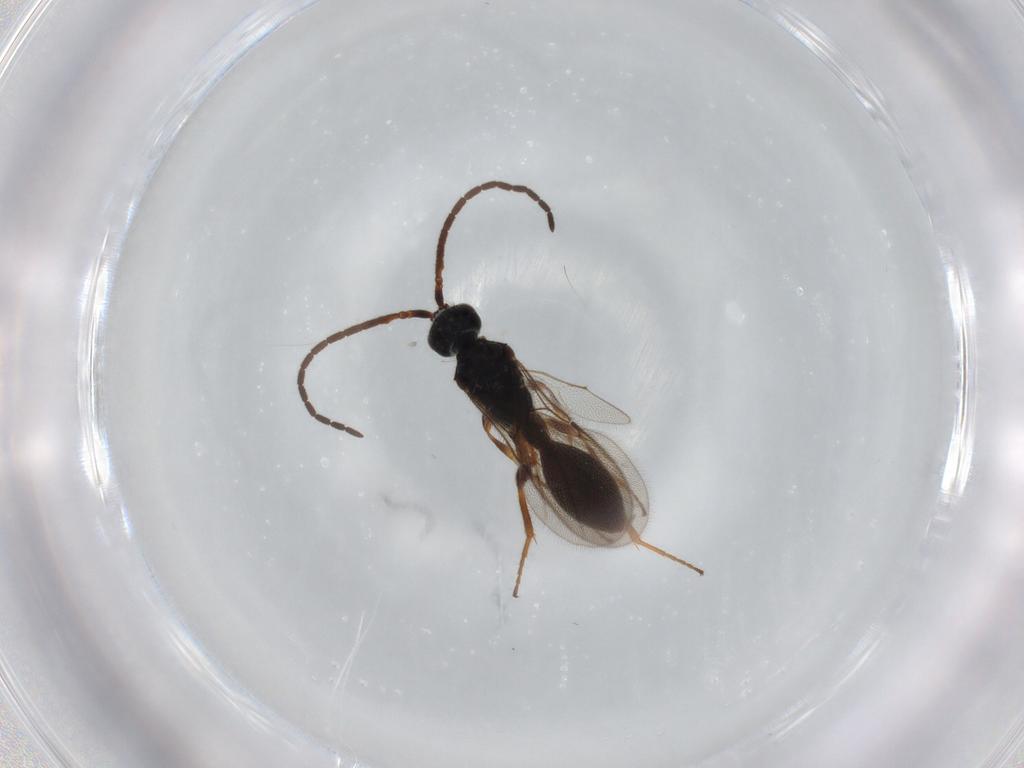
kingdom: Animalia
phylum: Arthropoda
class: Insecta
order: Hymenoptera
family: Diapriidae
